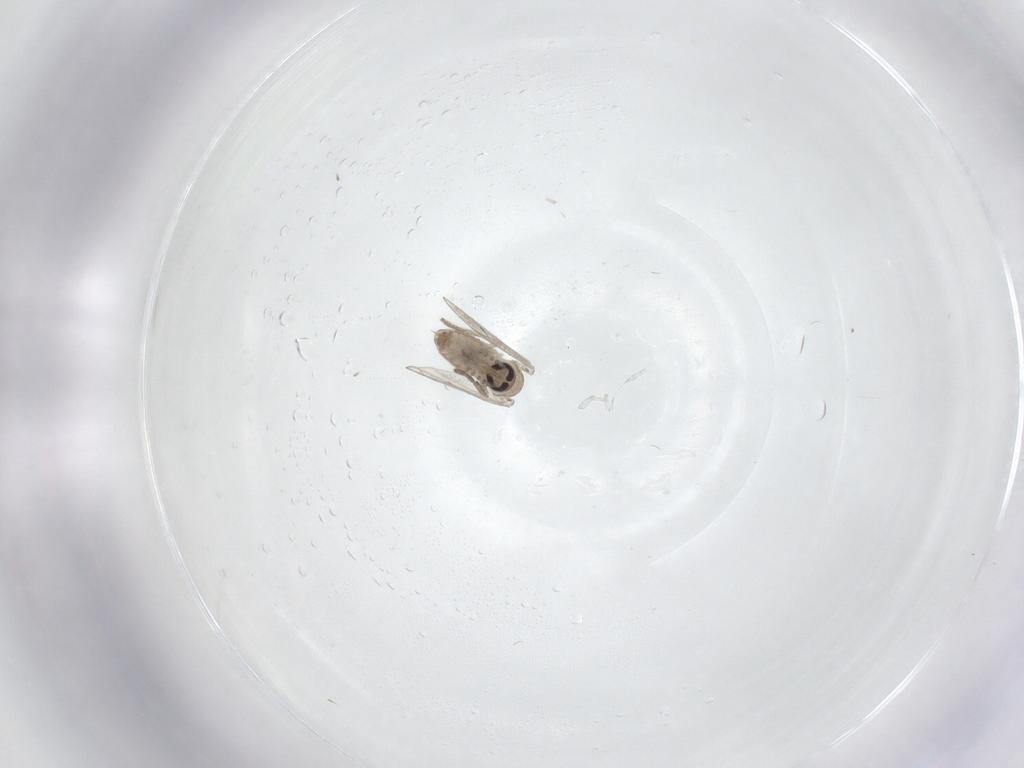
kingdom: Animalia
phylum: Arthropoda
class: Insecta
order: Diptera
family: Psychodidae
